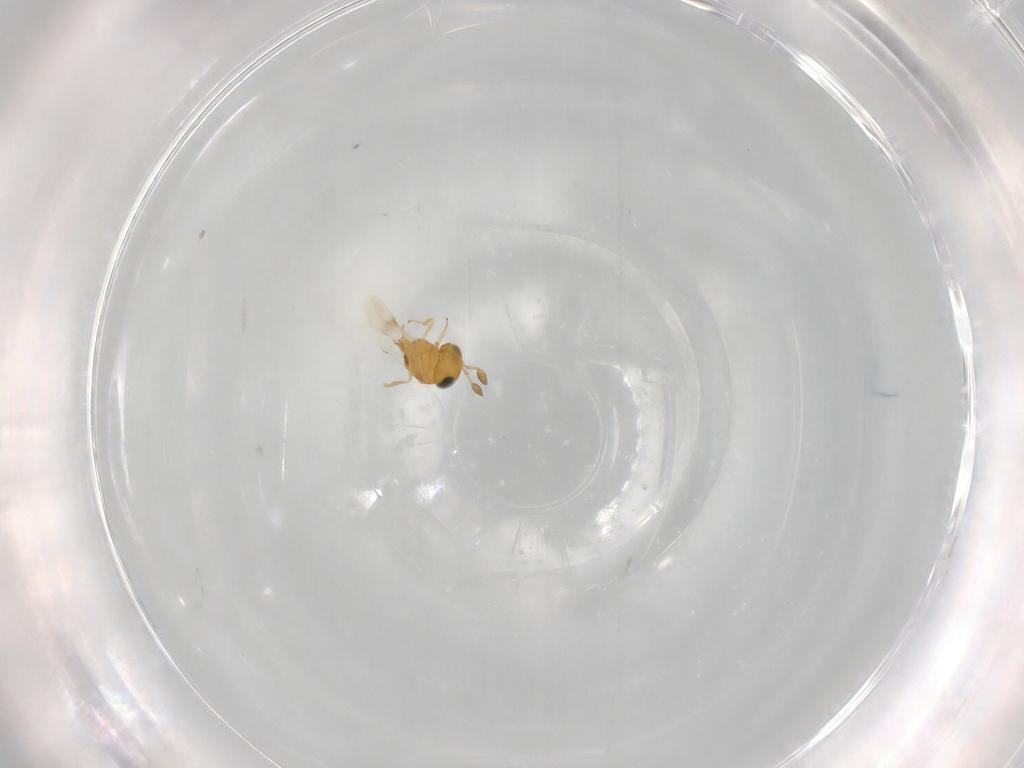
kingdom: Animalia
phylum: Arthropoda
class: Insecta
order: Hymenoptera
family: Scelionidae
